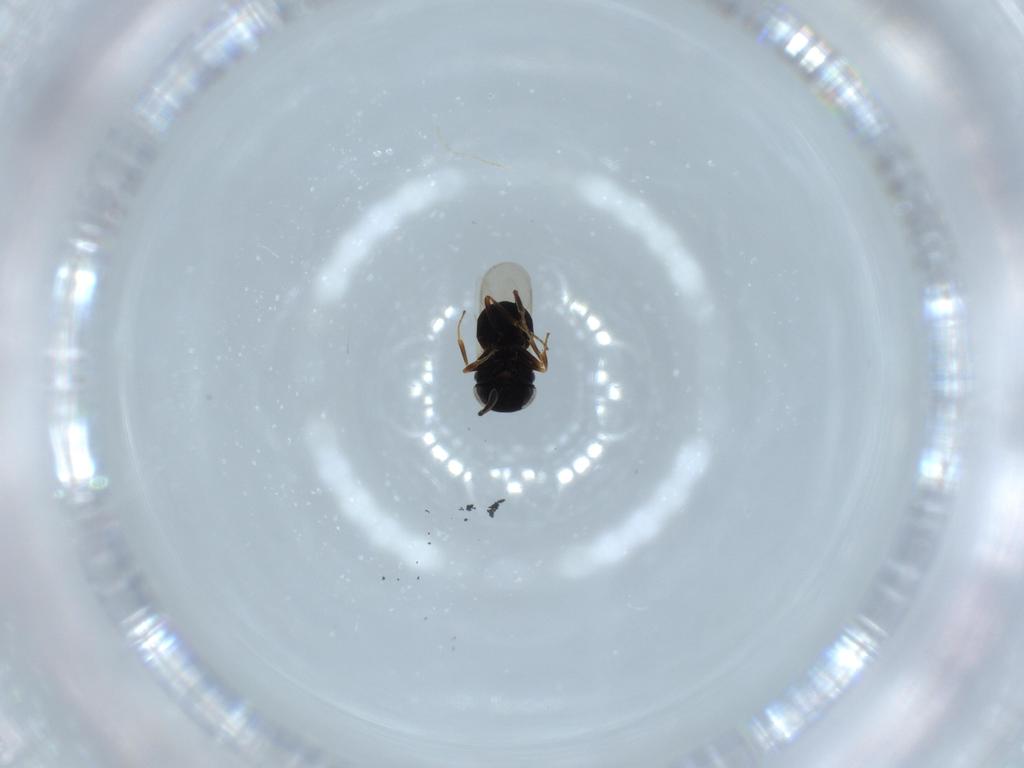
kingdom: Animalia
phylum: Arthropoda
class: Insecta
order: Hymenoptera
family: Scelionidae
